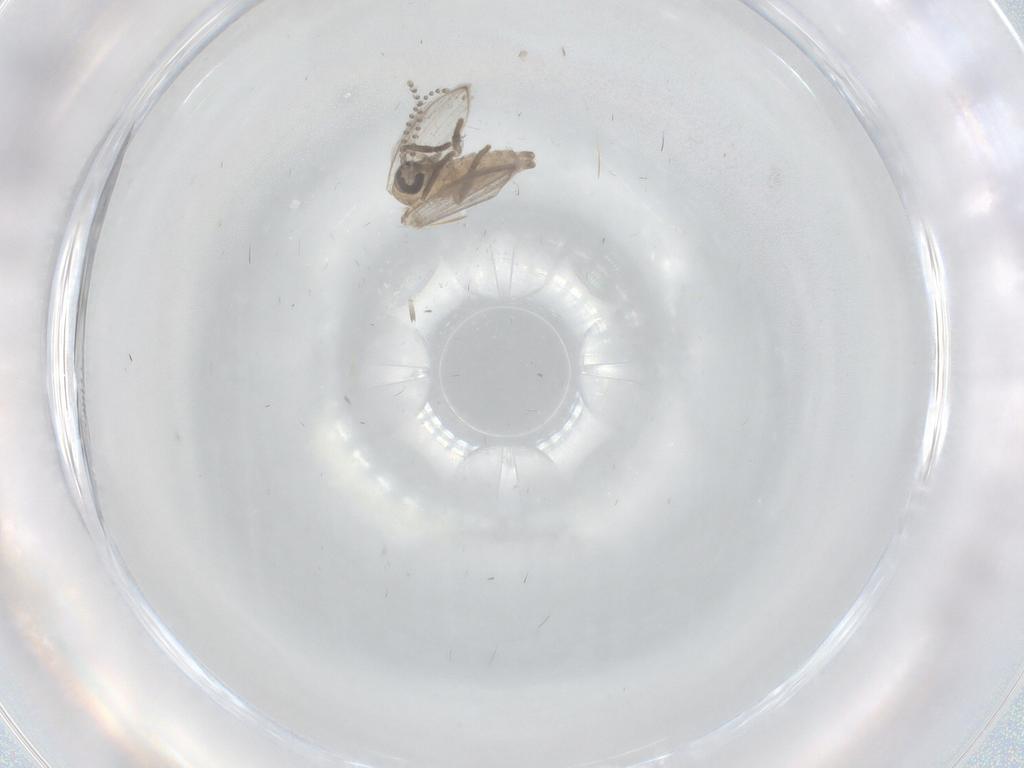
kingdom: Animalia
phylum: Arthropoda
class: Insecta
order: Diptera
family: Psychodidae
